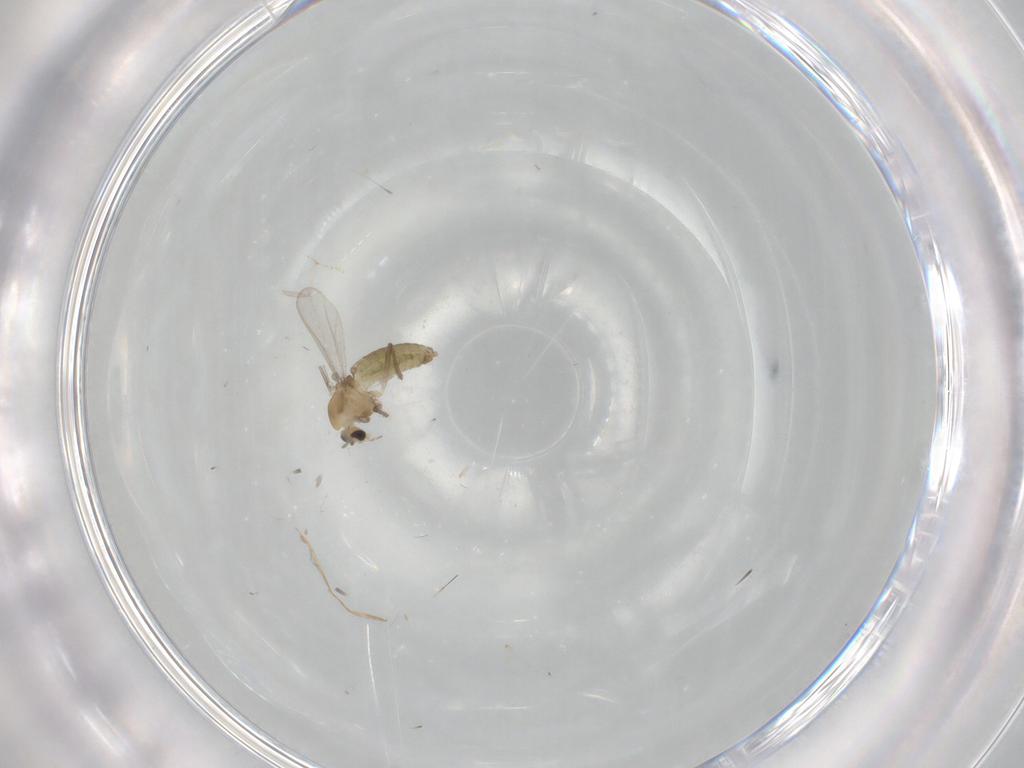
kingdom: Animalia
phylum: Arthropoda
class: Insecta
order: Diptera
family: Chironomidae
